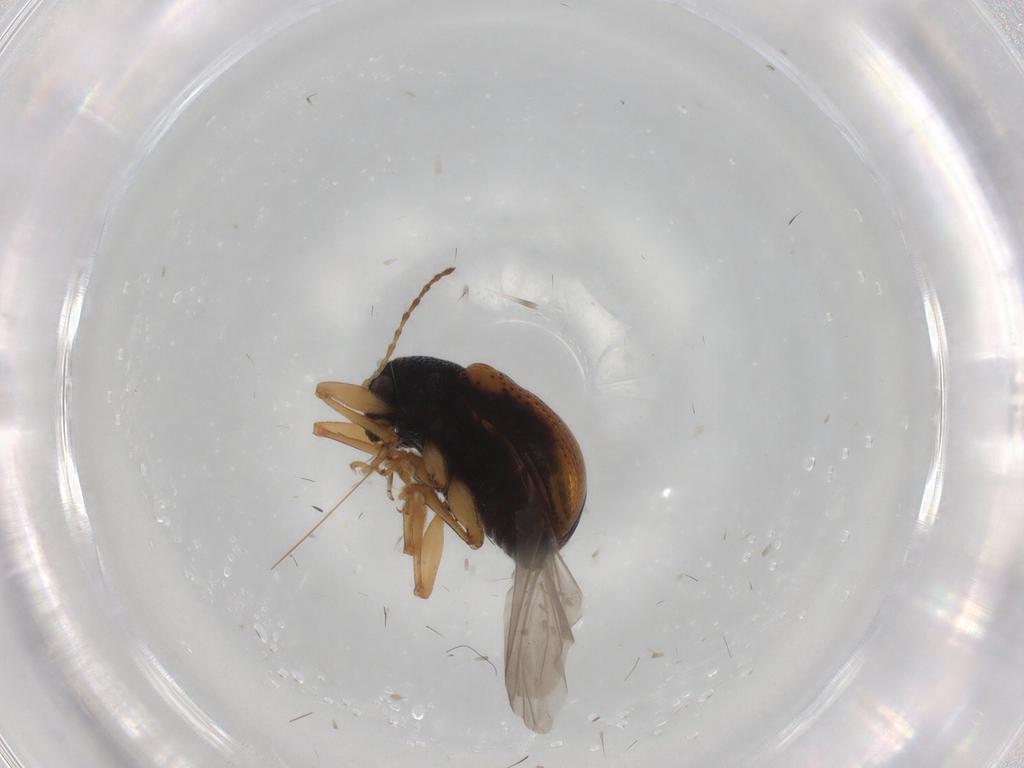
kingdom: Animalia
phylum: Arthropoda
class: Insecta
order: Coleoptera
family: Chrysomelidae
